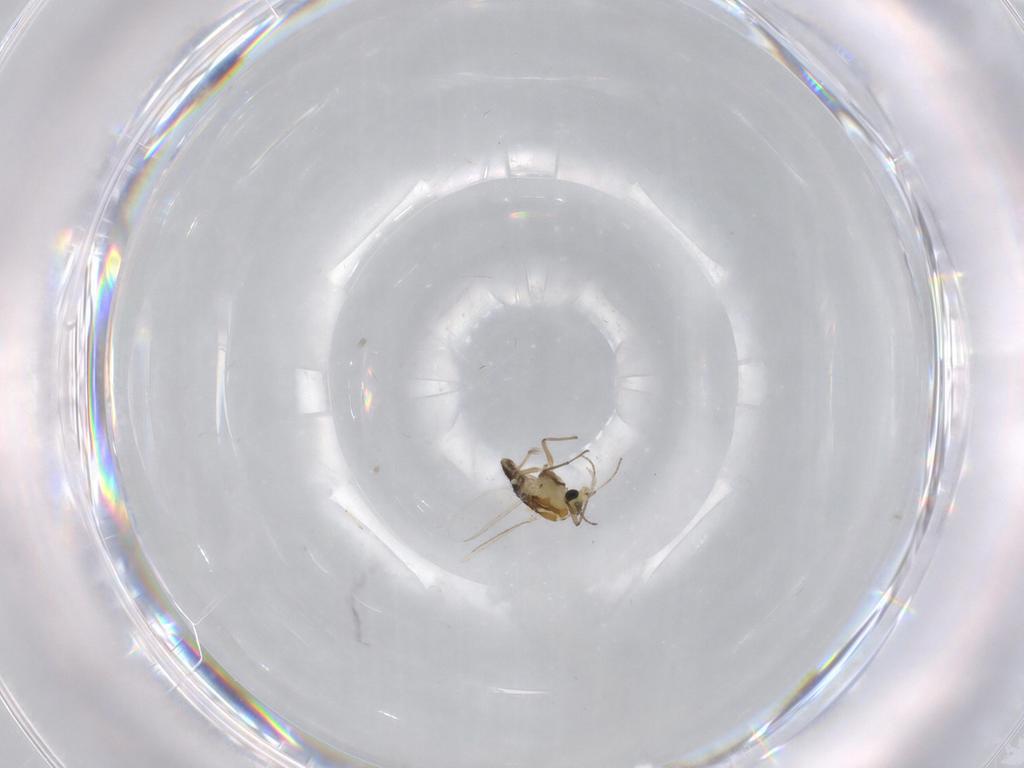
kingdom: Animalia
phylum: Arthropoda
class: Insecta
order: Diptera
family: Chironomidae
